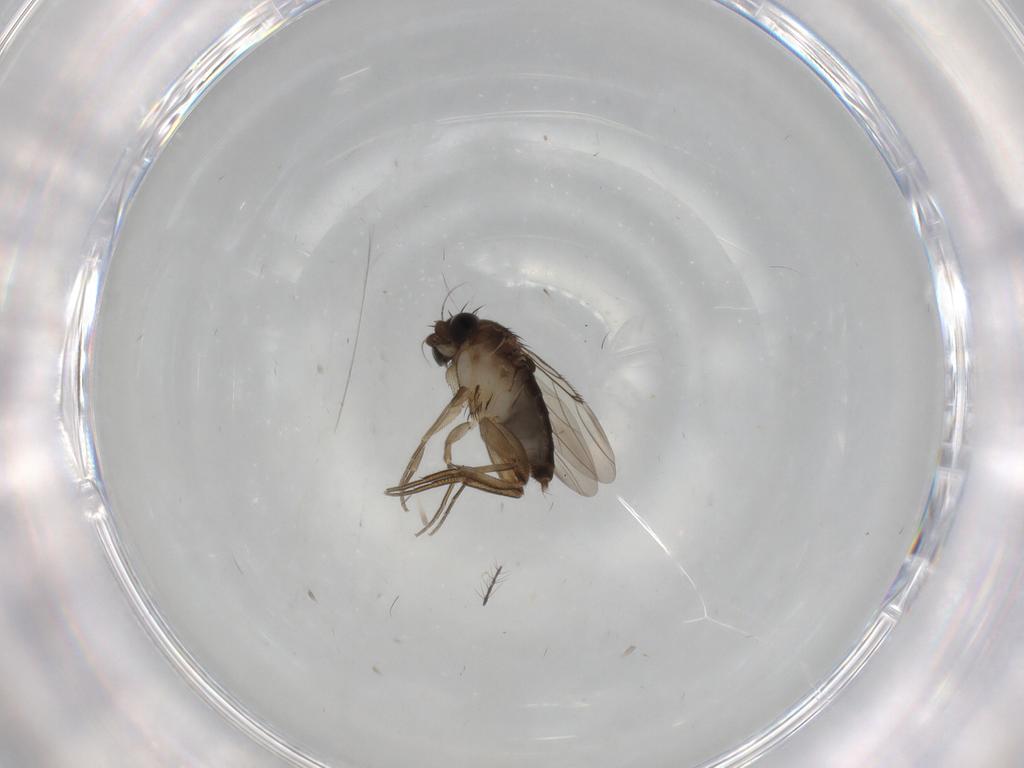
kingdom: Animalia
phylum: Arthropoda
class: Insecta
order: Diptera
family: Phoridae
